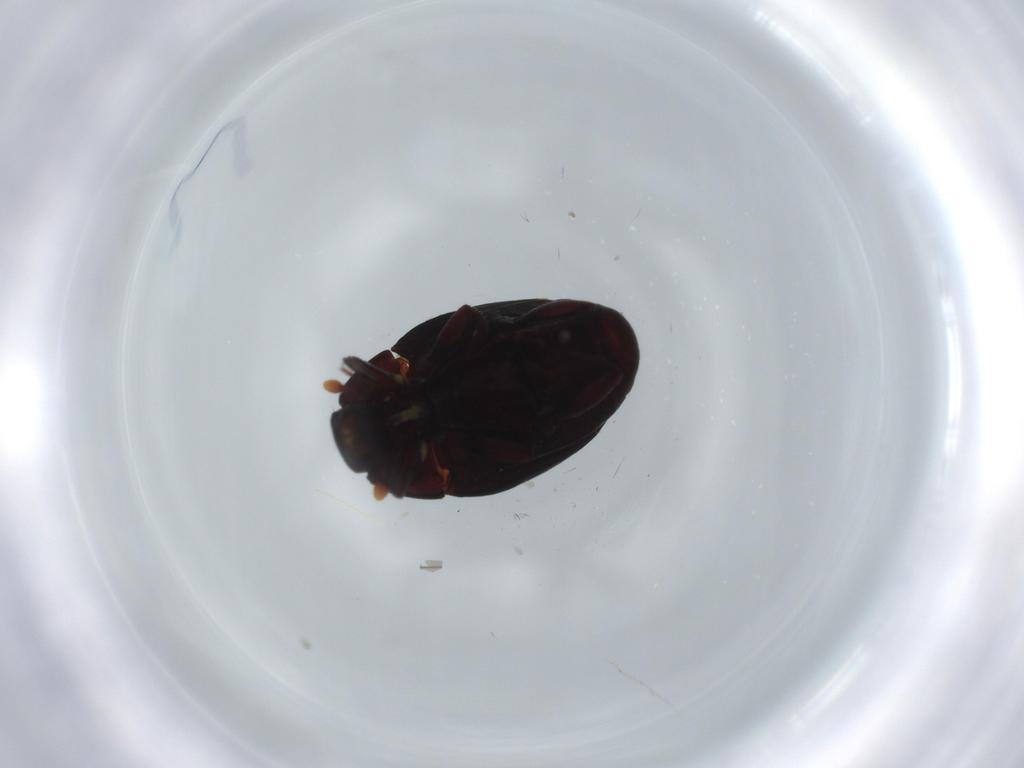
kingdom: Animalia
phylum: Arthropoda
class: Insecta
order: Coleoptera
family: Histeridae
